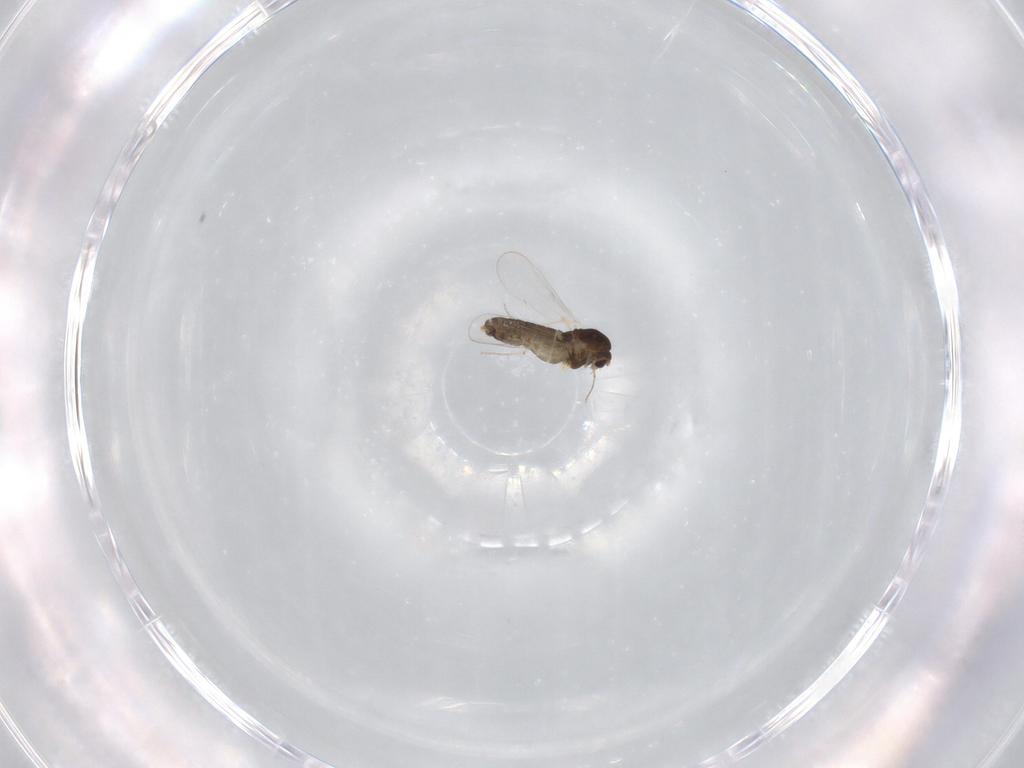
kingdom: Animalia
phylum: Arthropoda
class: Insecta
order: Diptera
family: Chironomidae
